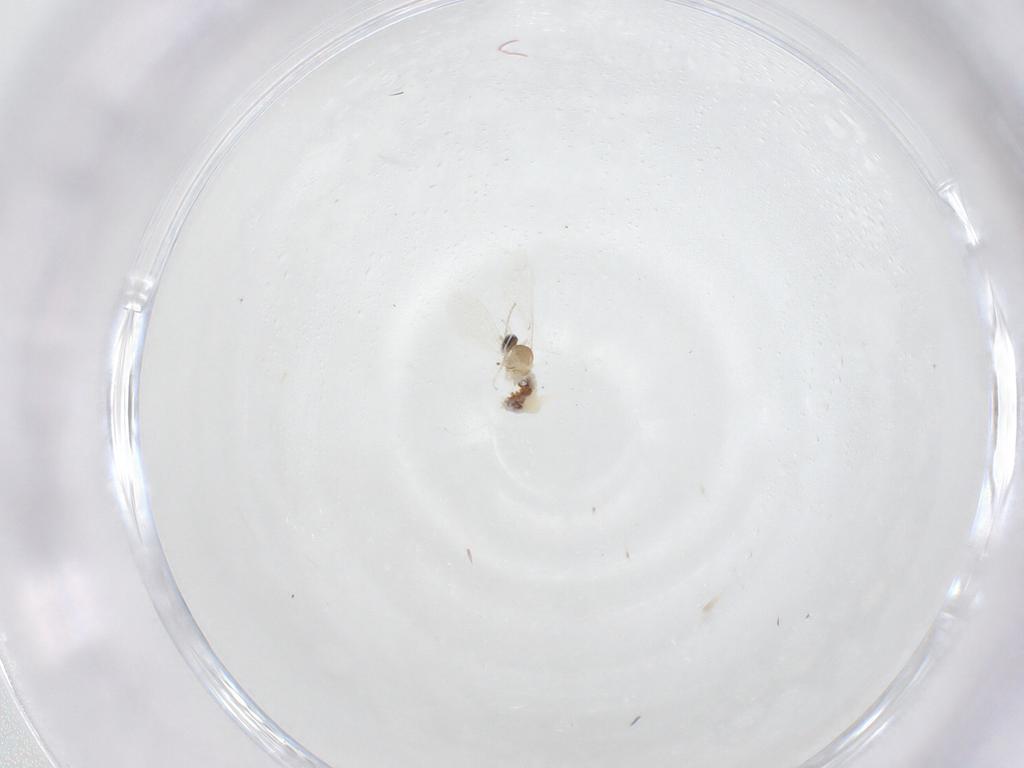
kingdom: Animalia
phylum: Arthropoda
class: Insecta
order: Diptera
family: Cecidomyiidae
